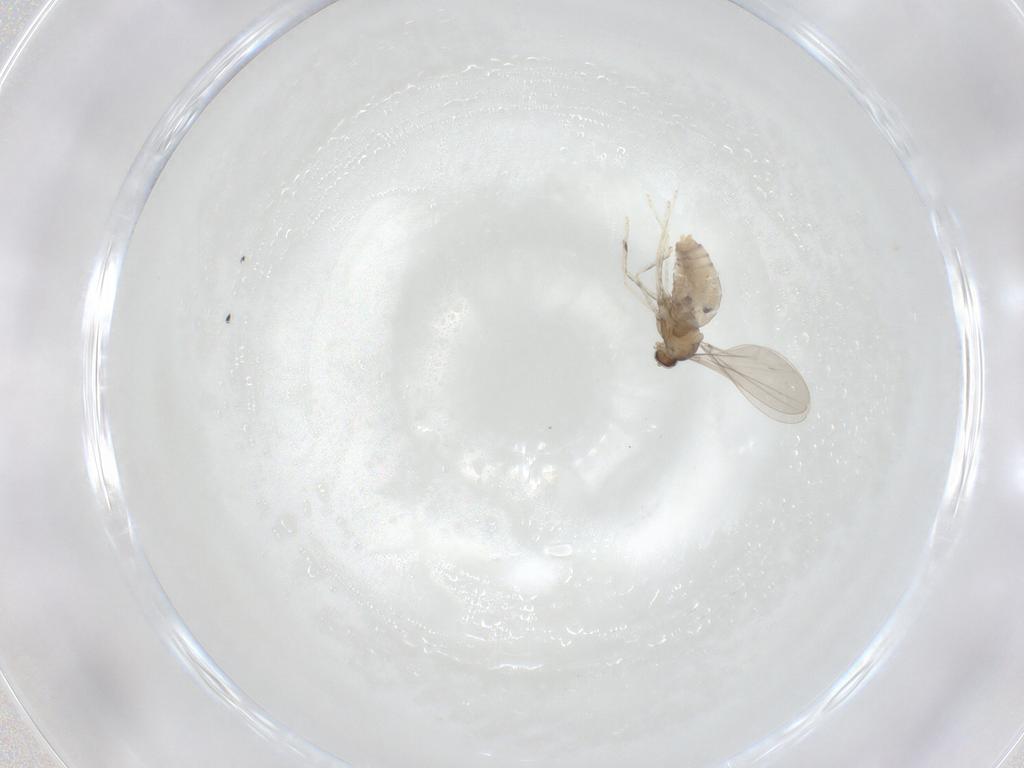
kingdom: Animalia
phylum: Arthropoda
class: Insecta
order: Diptera
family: Cecidomyiidae
